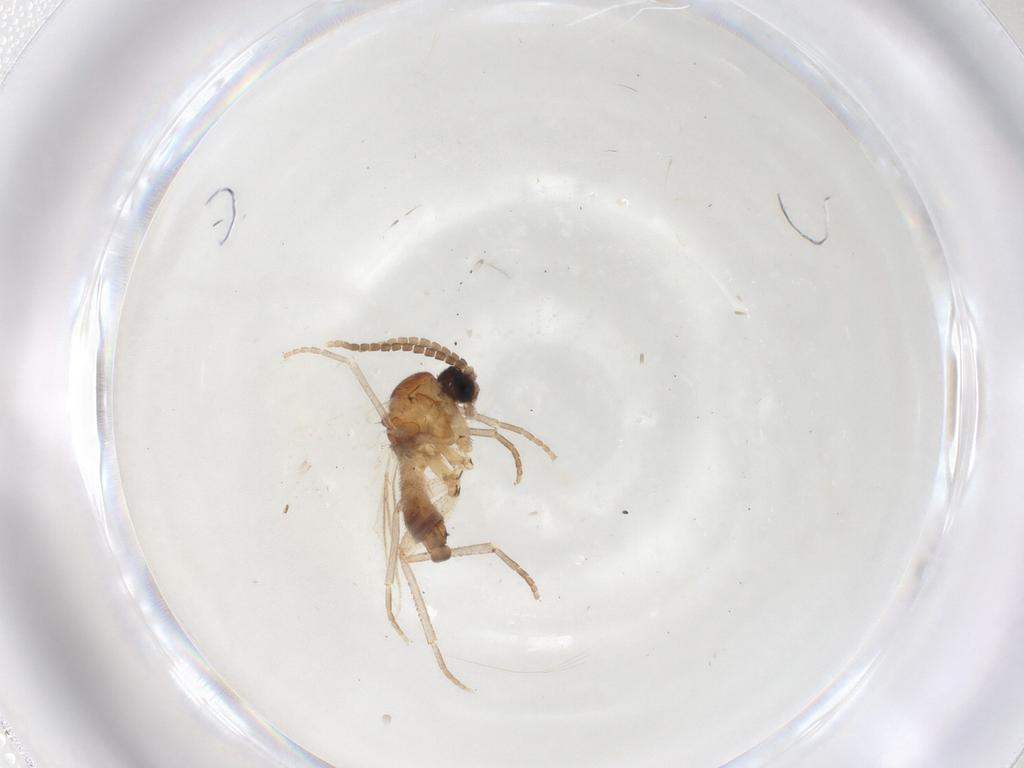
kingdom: Animalia
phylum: Arthropoda
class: Insecta
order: Diptera
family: Sciaridae
